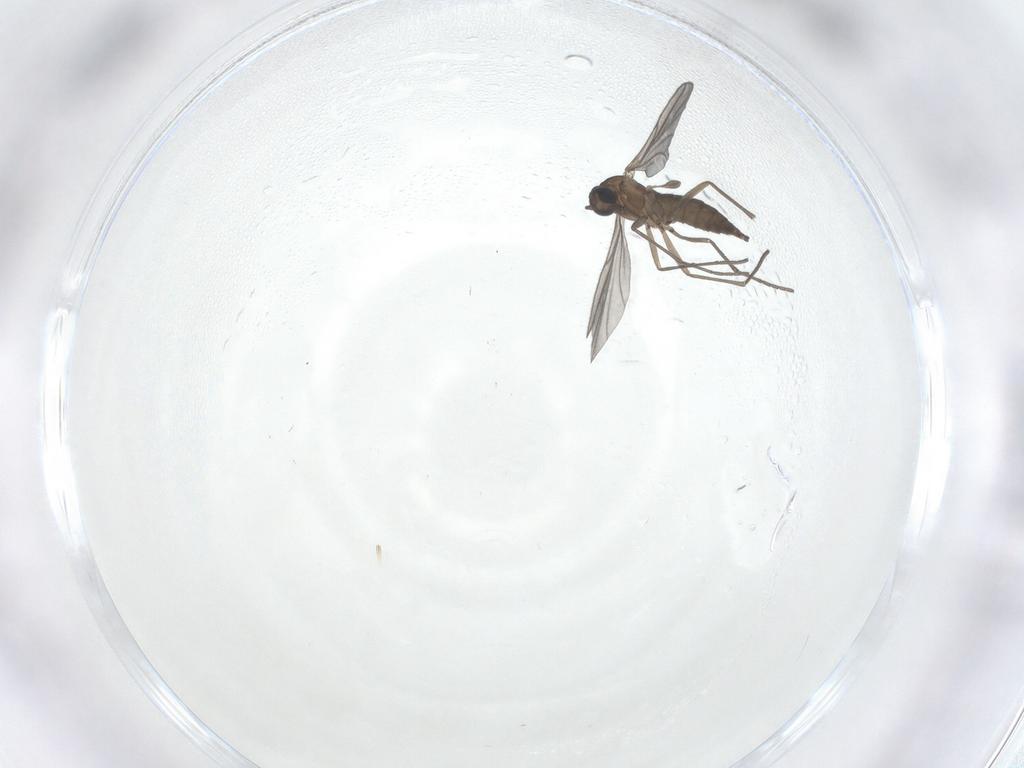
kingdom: Animalia
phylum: Arthropoda
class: Insecta
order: Diptera
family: Sciaridae
